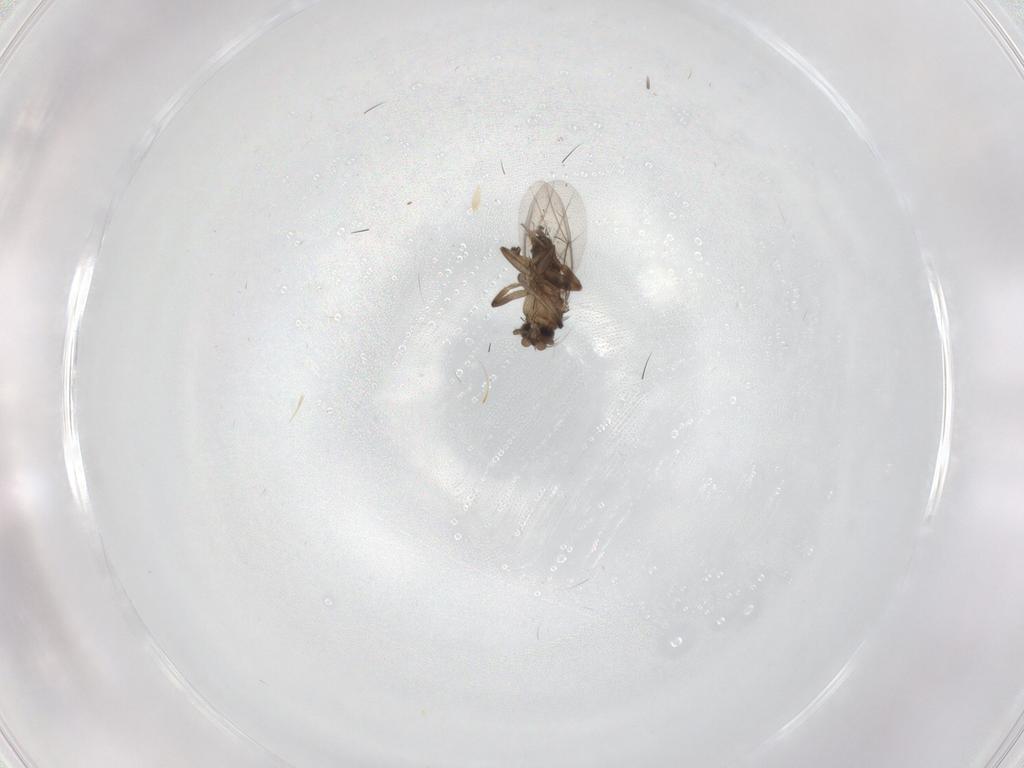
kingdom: Animalia
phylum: Arthropoda
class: Insecta
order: Diptera
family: Cecidomyiidae
